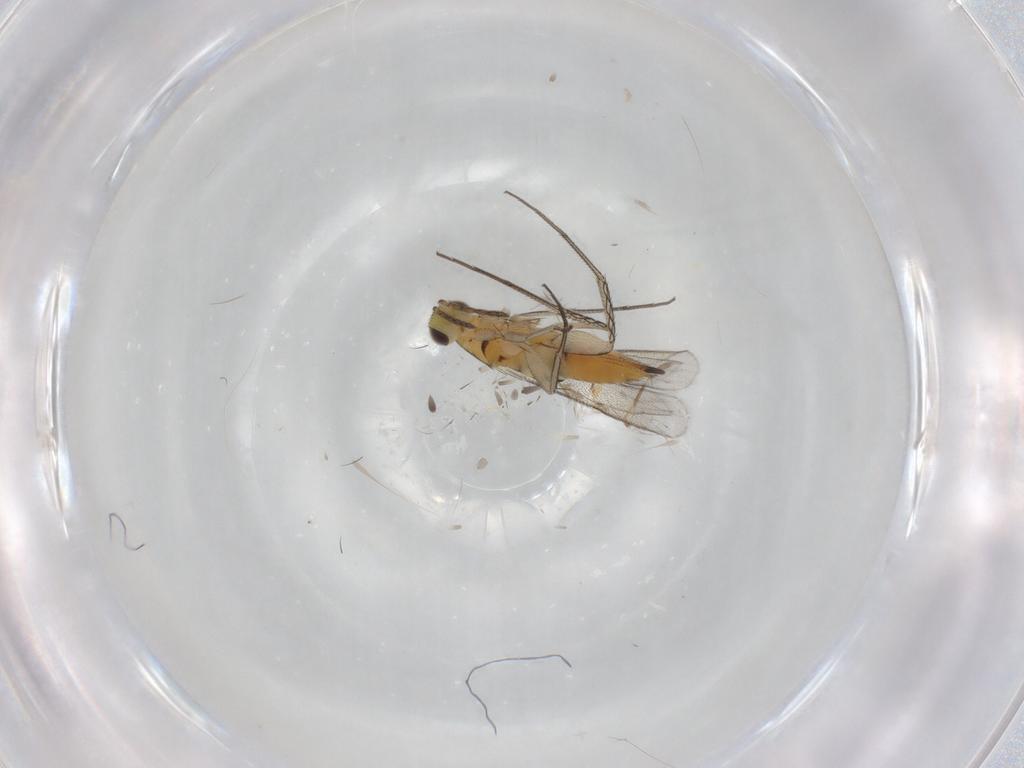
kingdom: Animalia
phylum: Arthropoda
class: Insecta
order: Hymenoptera
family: Eulophidae
